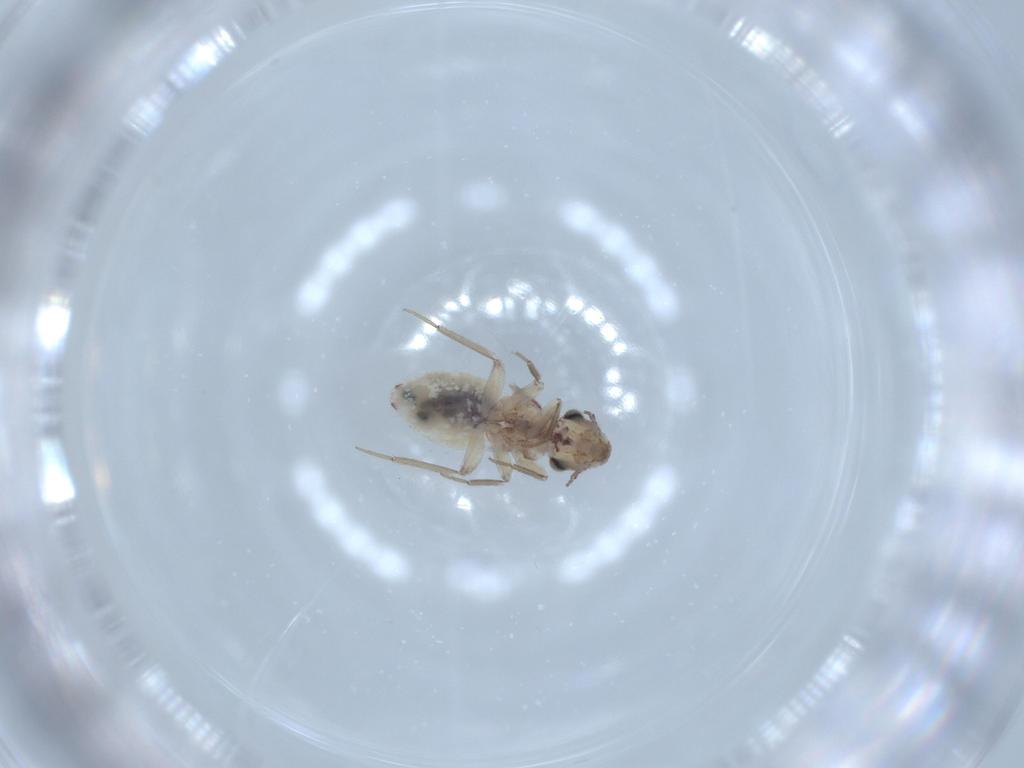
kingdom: Animalia
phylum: Arthropoda
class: Insecta
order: Psocodea
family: Lepidopsocidae
